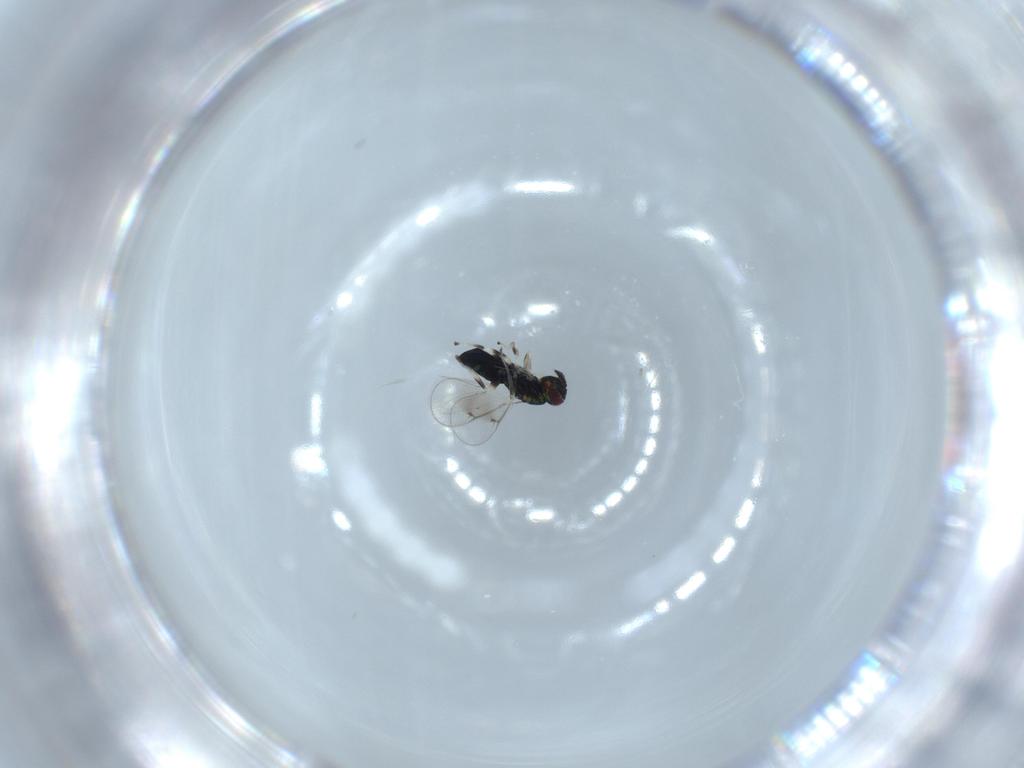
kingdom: Animalia
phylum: Arthropoda
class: Insecta
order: Hymenoptera
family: Eulophidae
